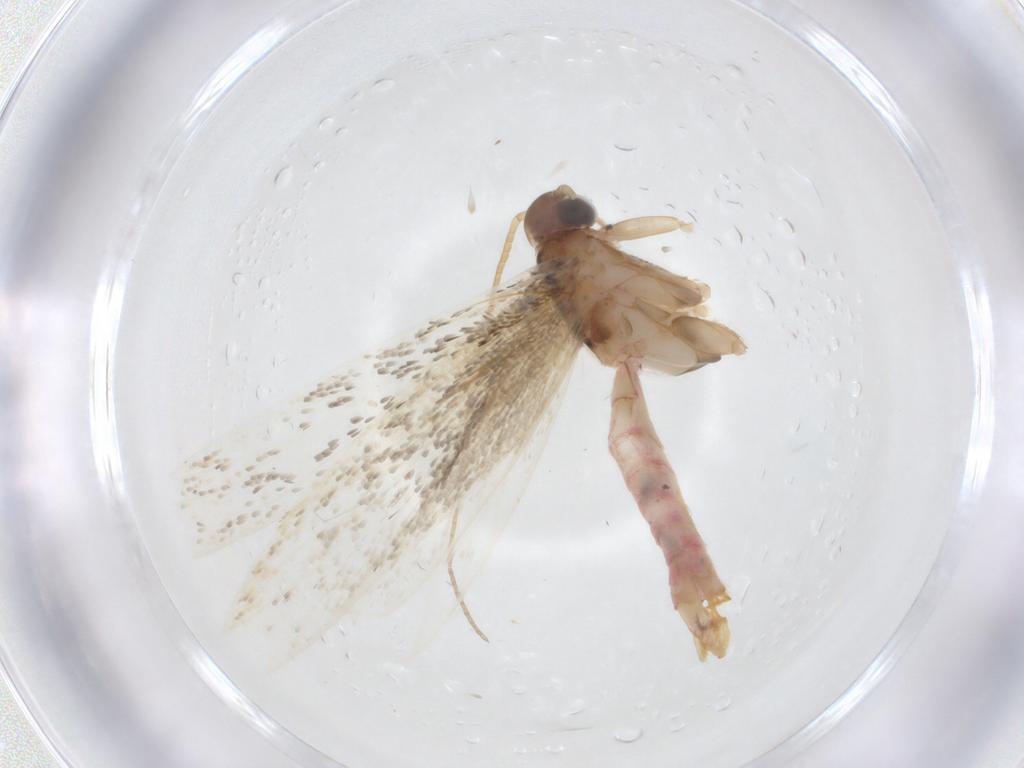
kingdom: Animalia
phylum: Arthropoda
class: Insecta
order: Lepidoptera
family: Crambidae
